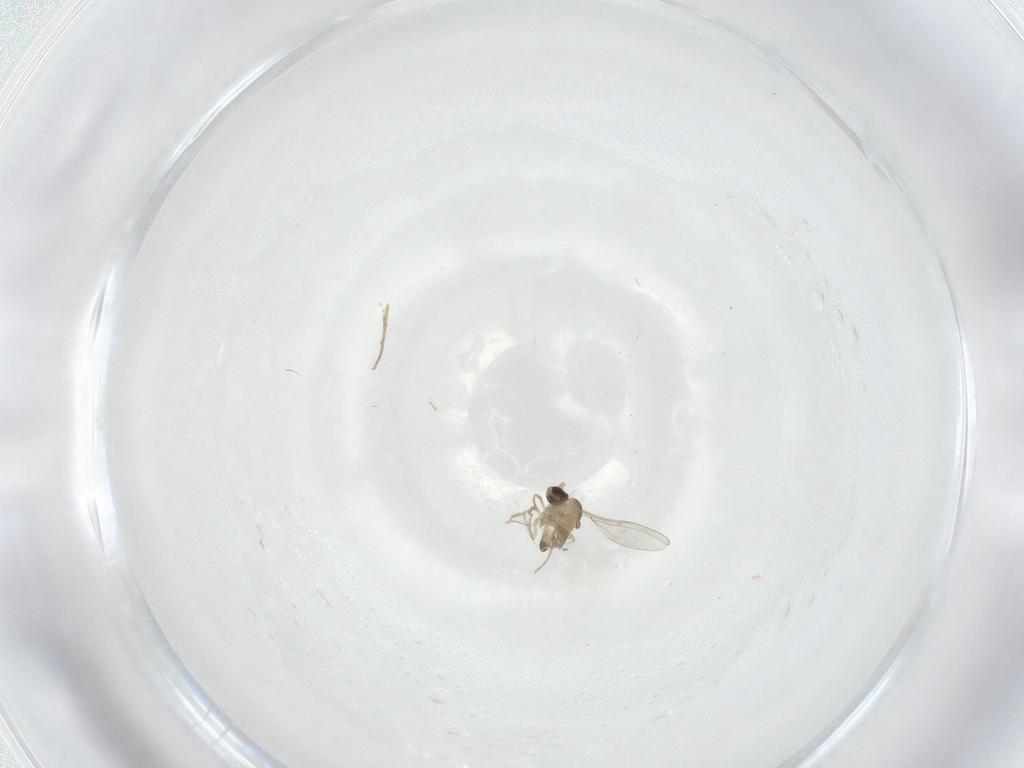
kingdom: Animalia
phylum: Arthropoda
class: Insecta
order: Diptera
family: Cecidomyiidae
